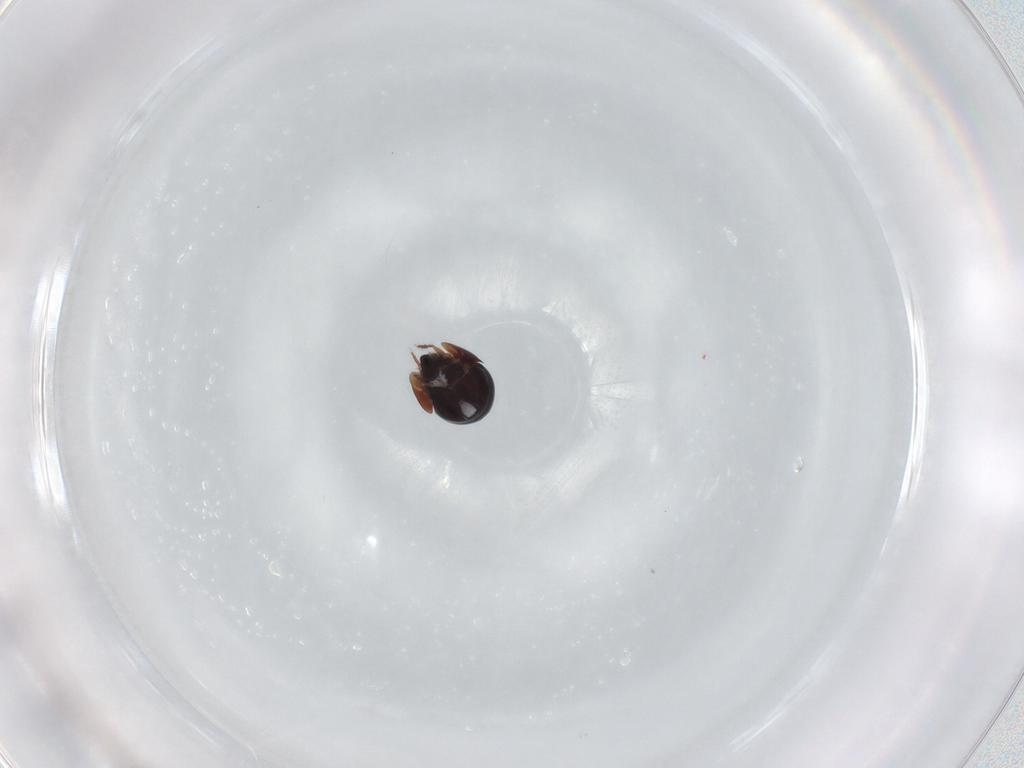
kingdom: Animalia
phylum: Arthropoda
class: Arachnida
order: Sarcoptiformes
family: Ceratozetidae
